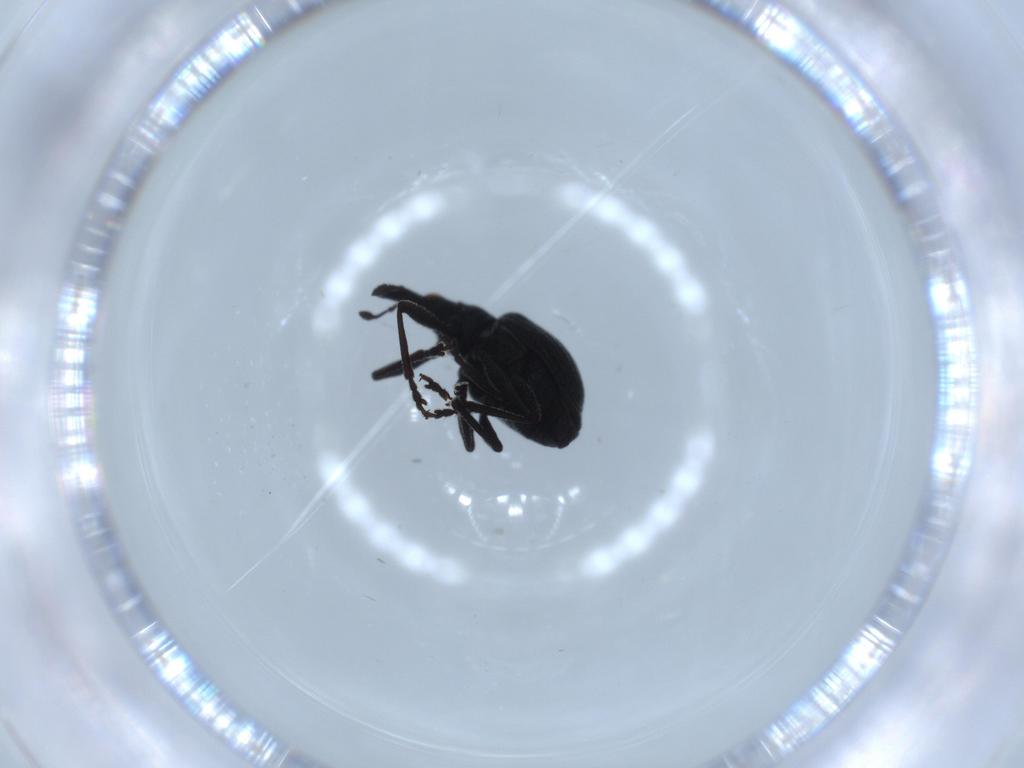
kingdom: Animalia
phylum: Arthropoda
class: Insecta
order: Coleoptera
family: Brentidae
